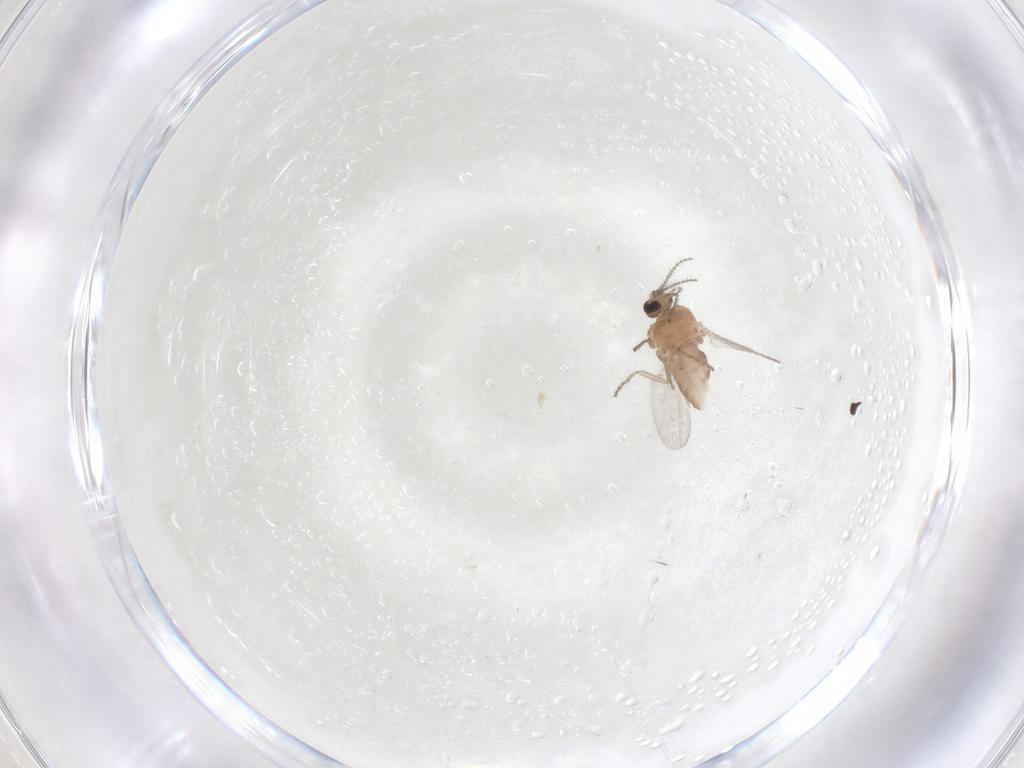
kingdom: Animalia
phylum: Arthropoda
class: Insecta
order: Diptera
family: Ceratopogonidae
